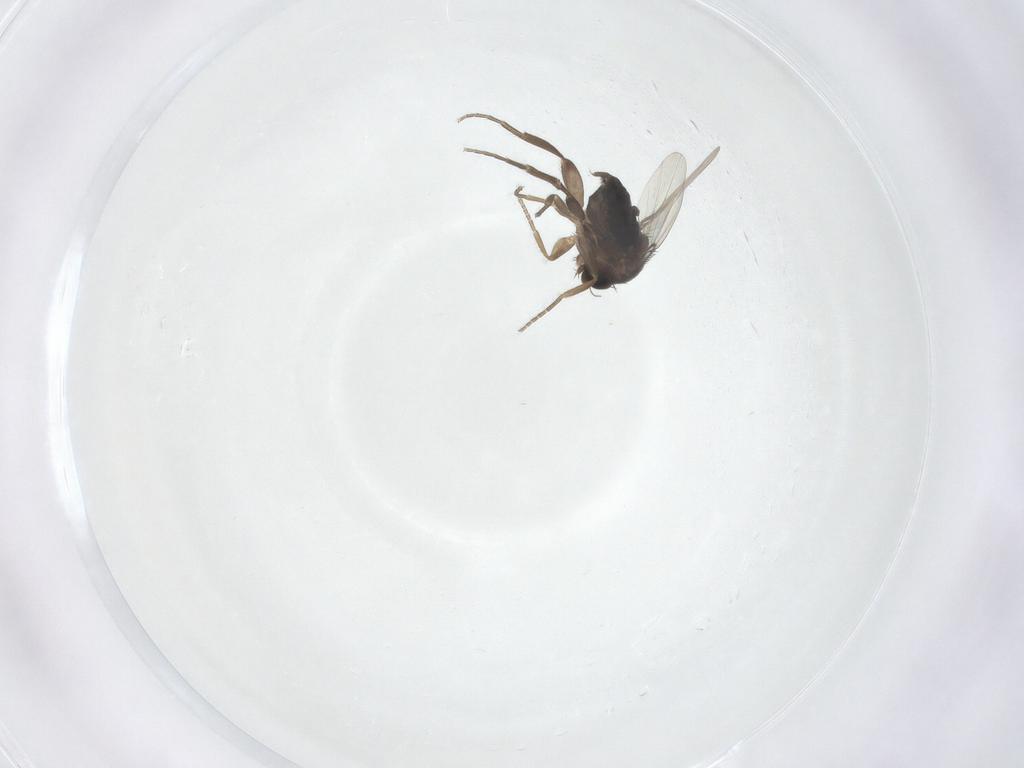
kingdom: Animalia
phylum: Arthropoda
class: Insecta
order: Diptera
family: Phoridae
